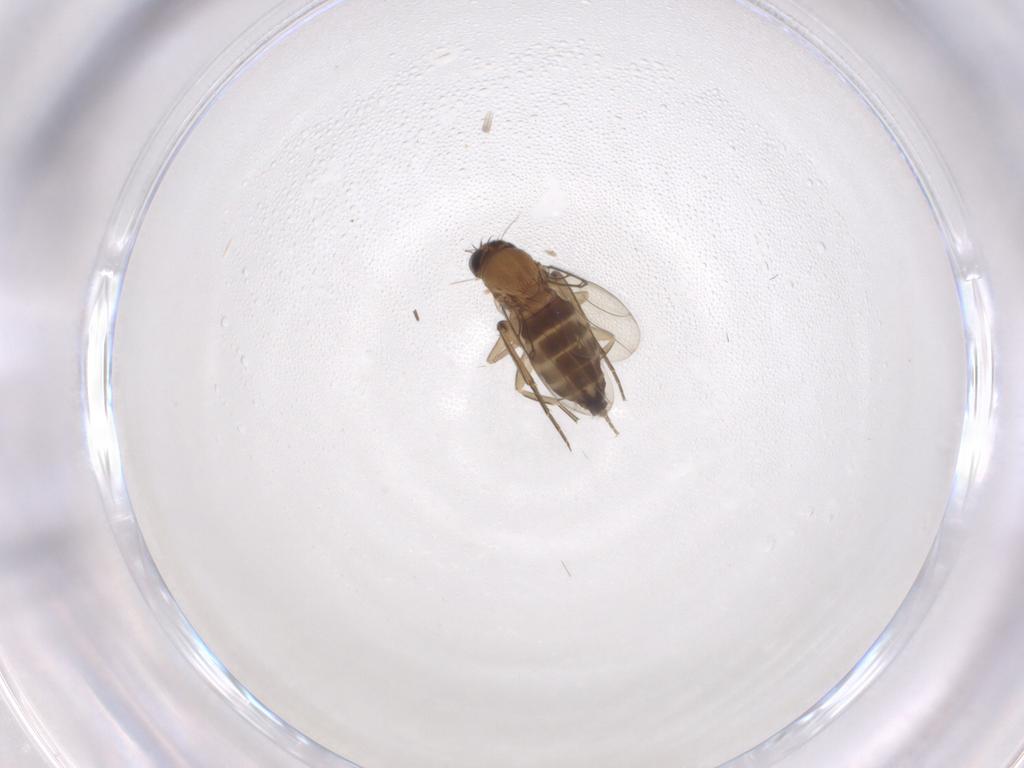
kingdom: Animalia
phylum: Arthropoda
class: Insecta
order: Diptera
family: Phoridae
